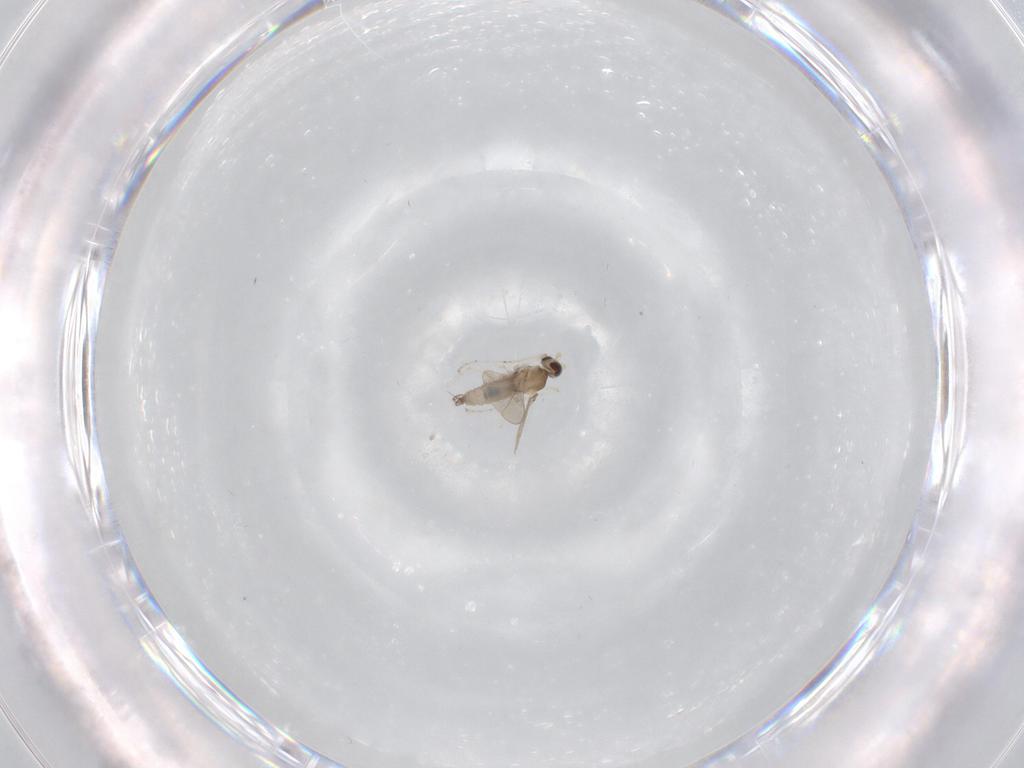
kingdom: Animalia
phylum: Arthropoda
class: Insecta
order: Diptera
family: Cecidomyiidae
